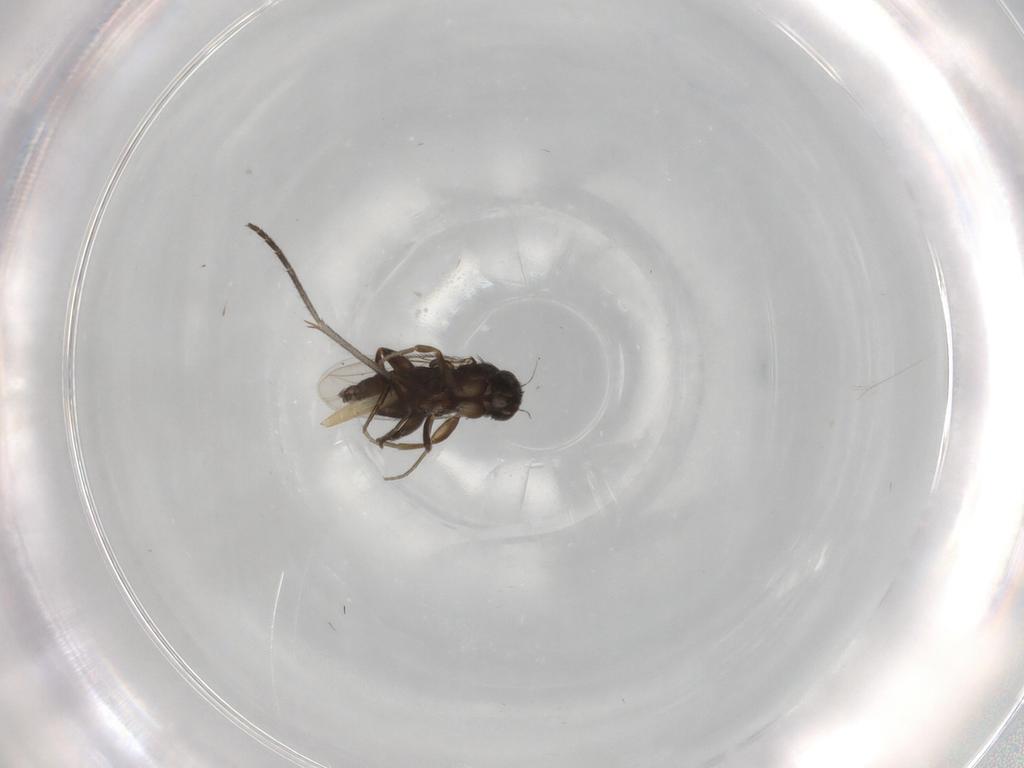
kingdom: Animalia
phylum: Arthropoda
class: Insecta
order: Diptera
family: Phoridae
